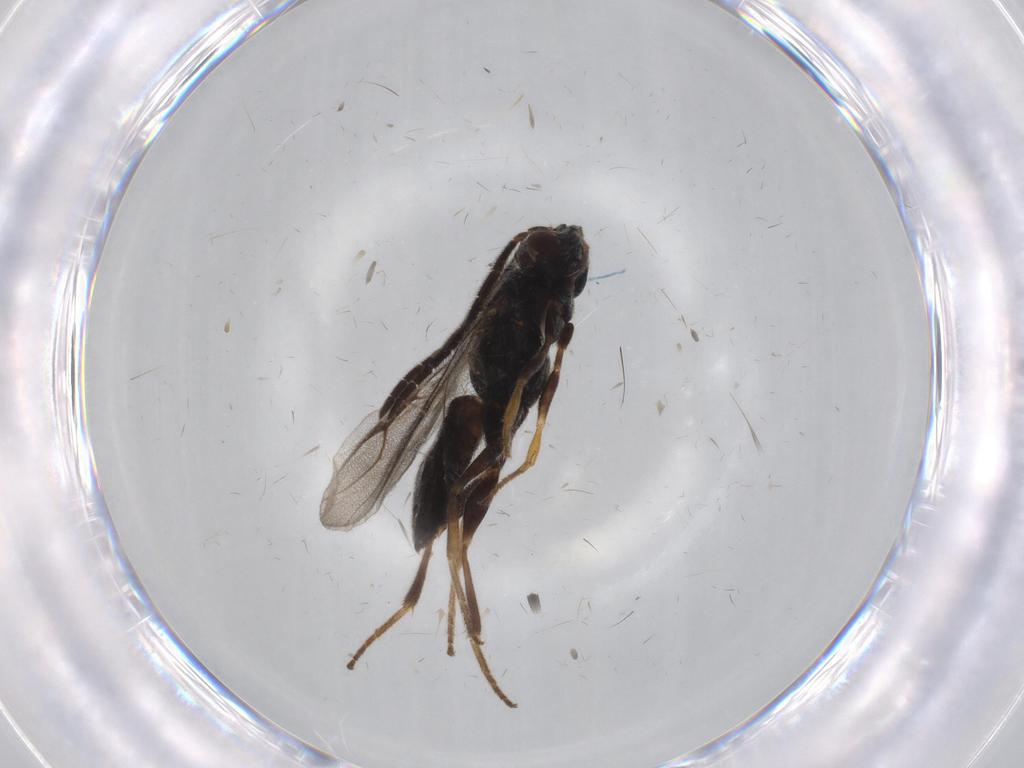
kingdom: Animalia
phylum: Arthropoda
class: Insecta
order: Hymenoptera
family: Dryinidae
